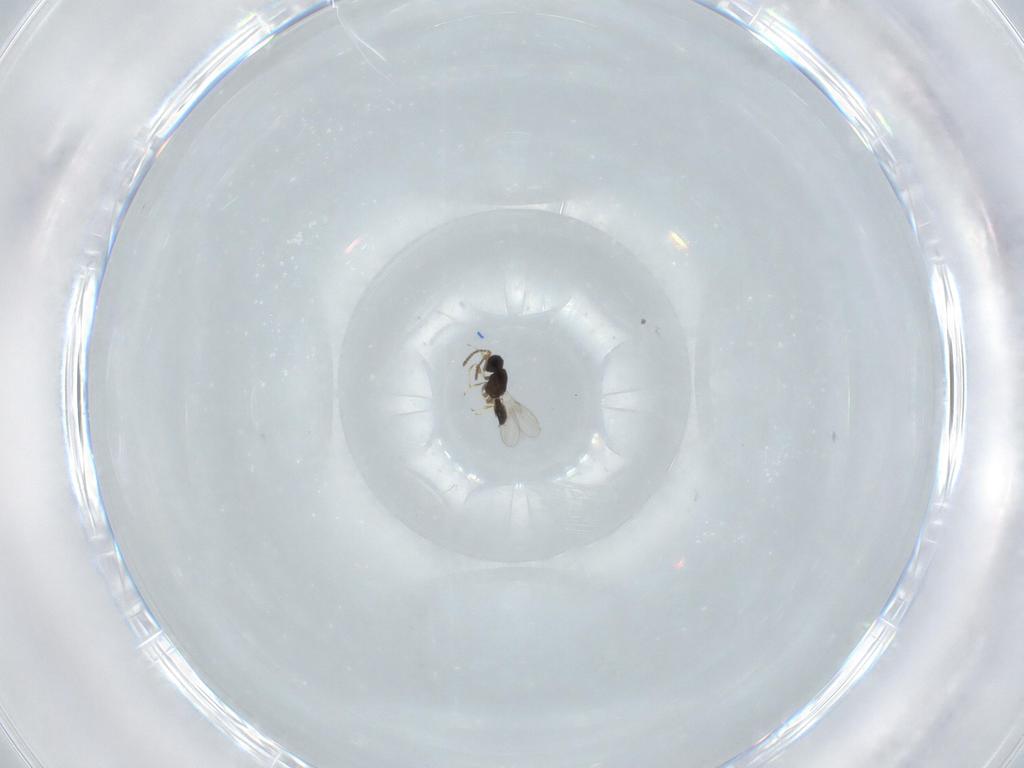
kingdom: Animalia
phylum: Arthropoda
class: Insecta
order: Hymenoptera
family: Scelionidae
